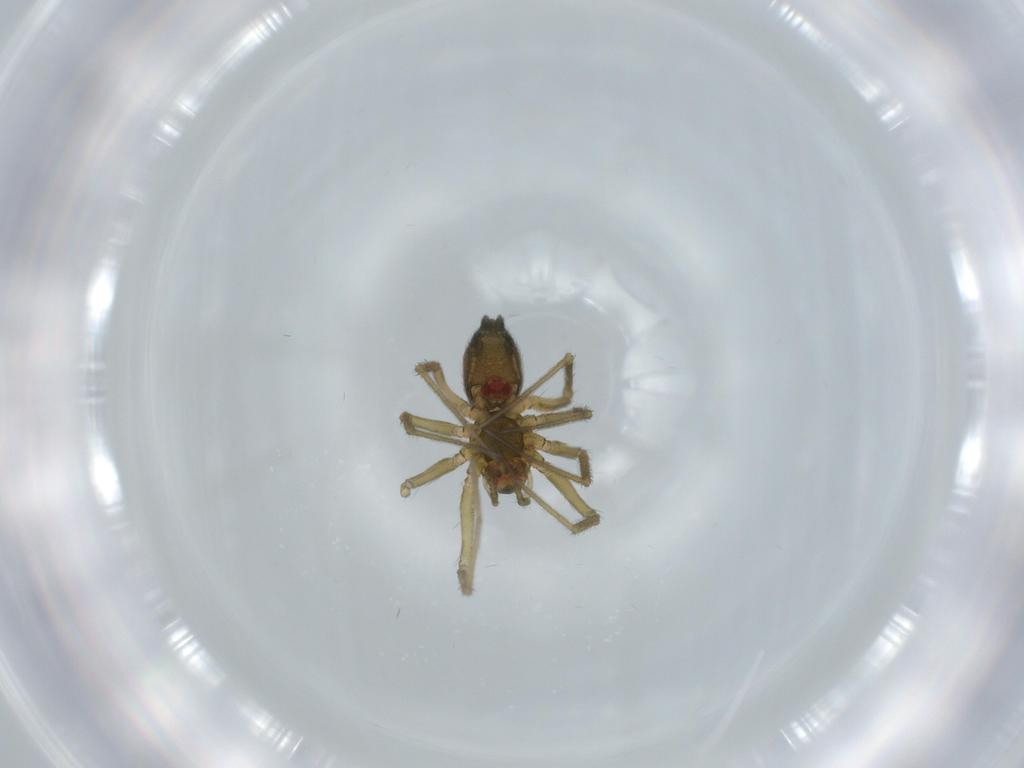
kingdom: Animalia
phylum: Arthropoda
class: Arachnida
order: Araneae
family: Linyphiidae
